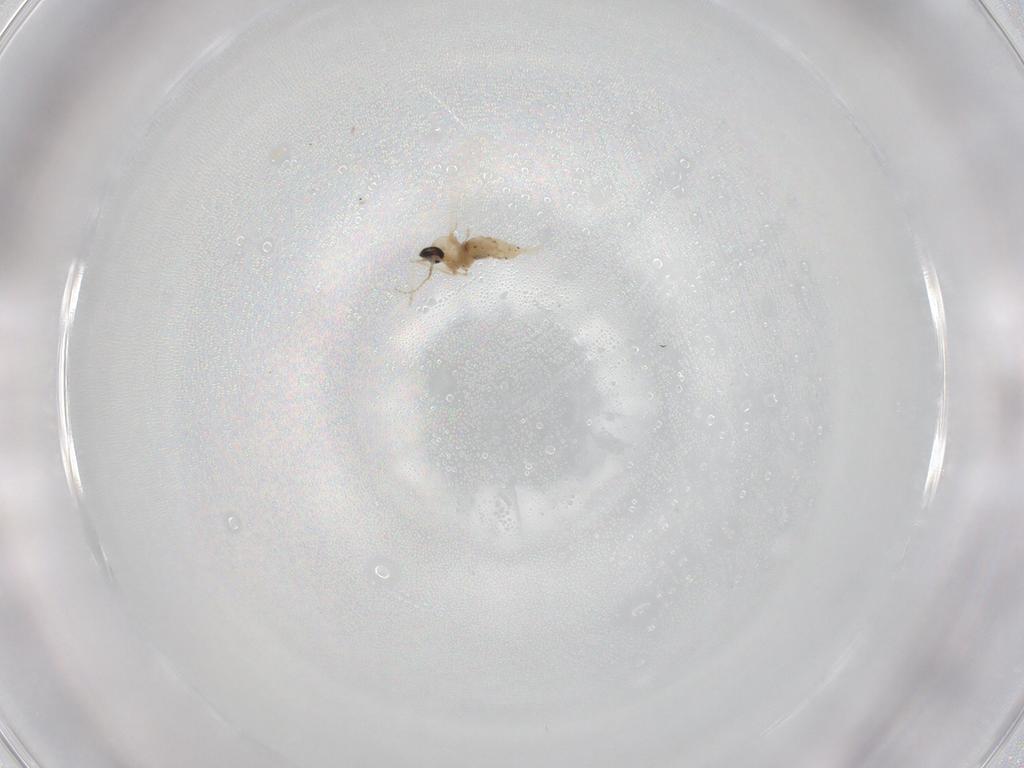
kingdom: Animalia
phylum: Arthropoda
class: Insecta
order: Diptera
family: Cecidomyiidae
